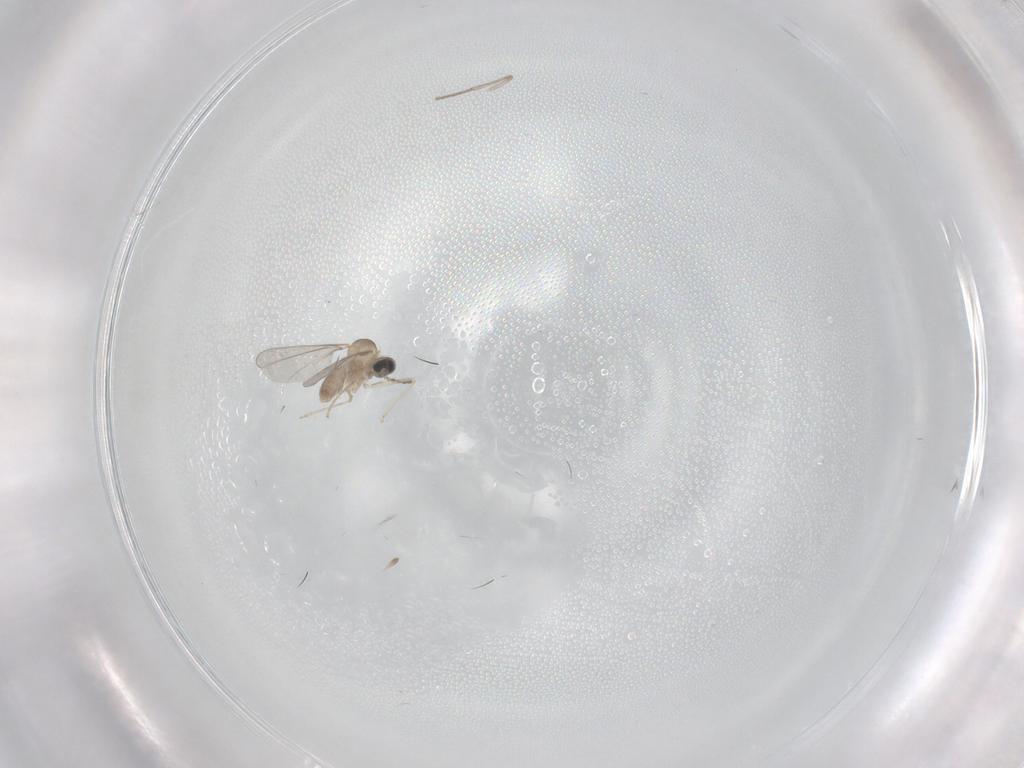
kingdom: Animalia
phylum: Arthropoda
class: Insecta
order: Diptera
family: Cecidomyiidae
